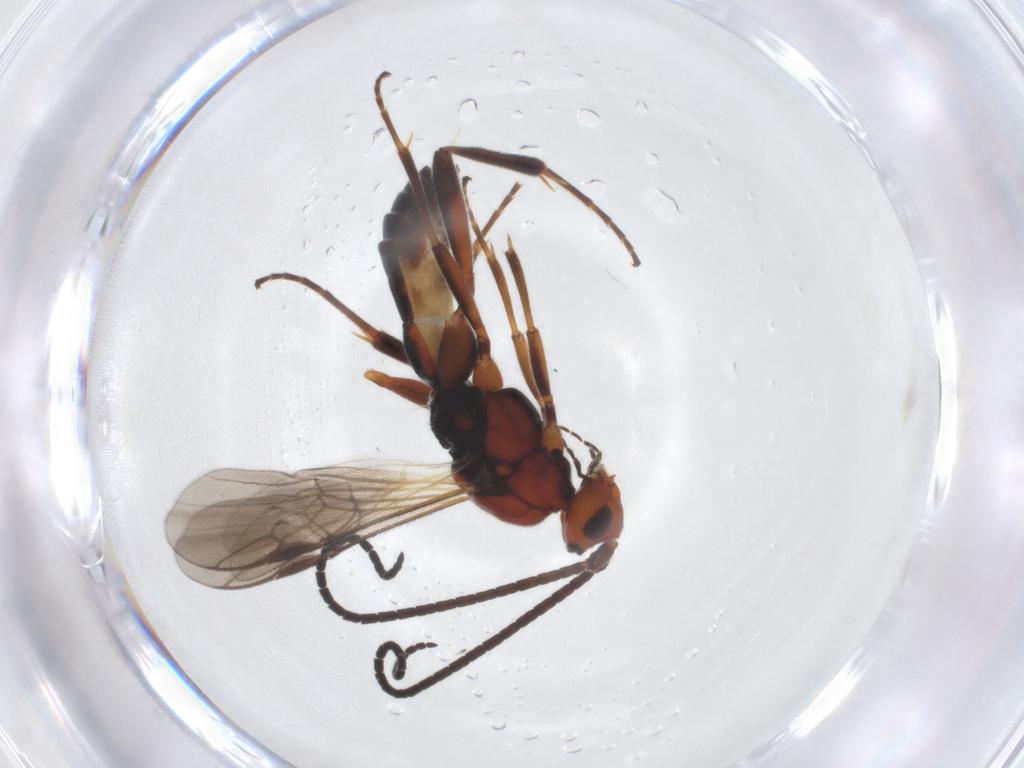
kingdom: Animalia
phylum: Arthropoda
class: Insecta
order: Hymenoptera
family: Braconidae
